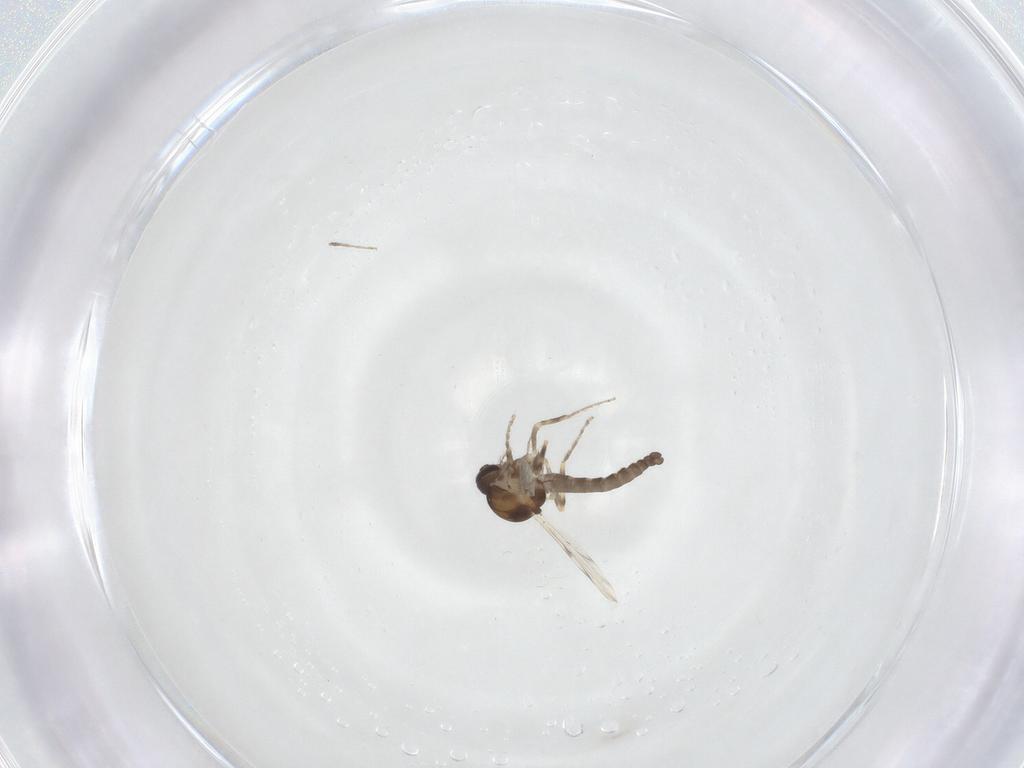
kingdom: Animalia
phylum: Arthropoda
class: Insecta
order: Diptera
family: Ceratopogonidae
